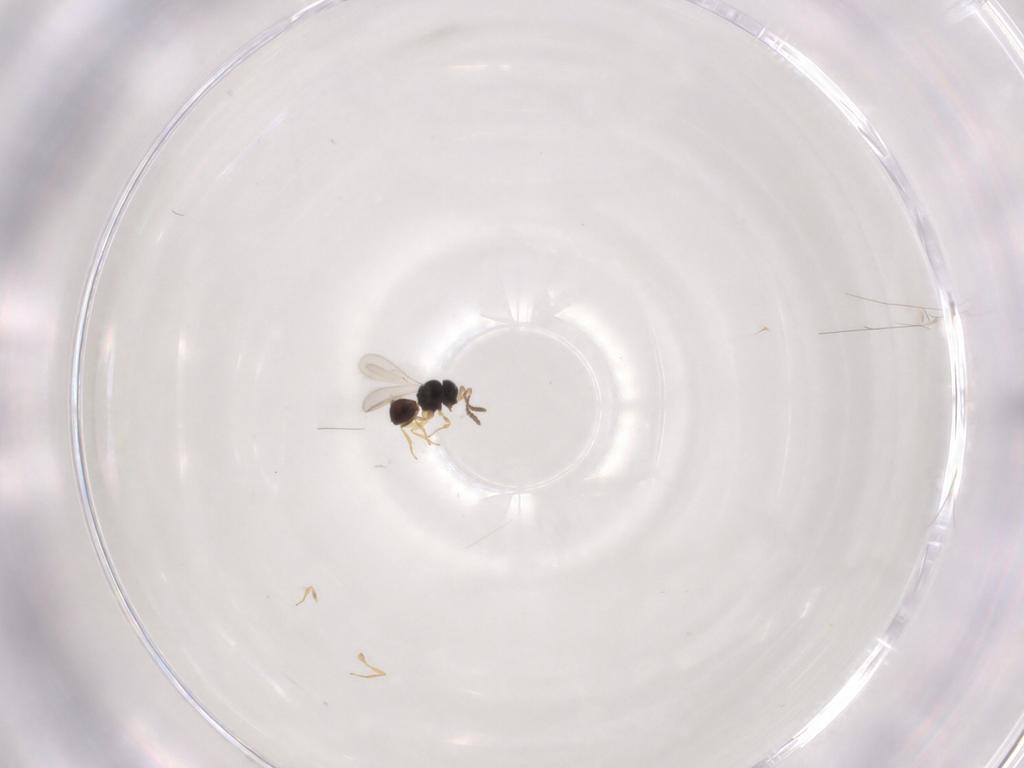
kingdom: Animalia
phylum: Arthropoda
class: Insecta
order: Hymenoptera
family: Scelionidae
